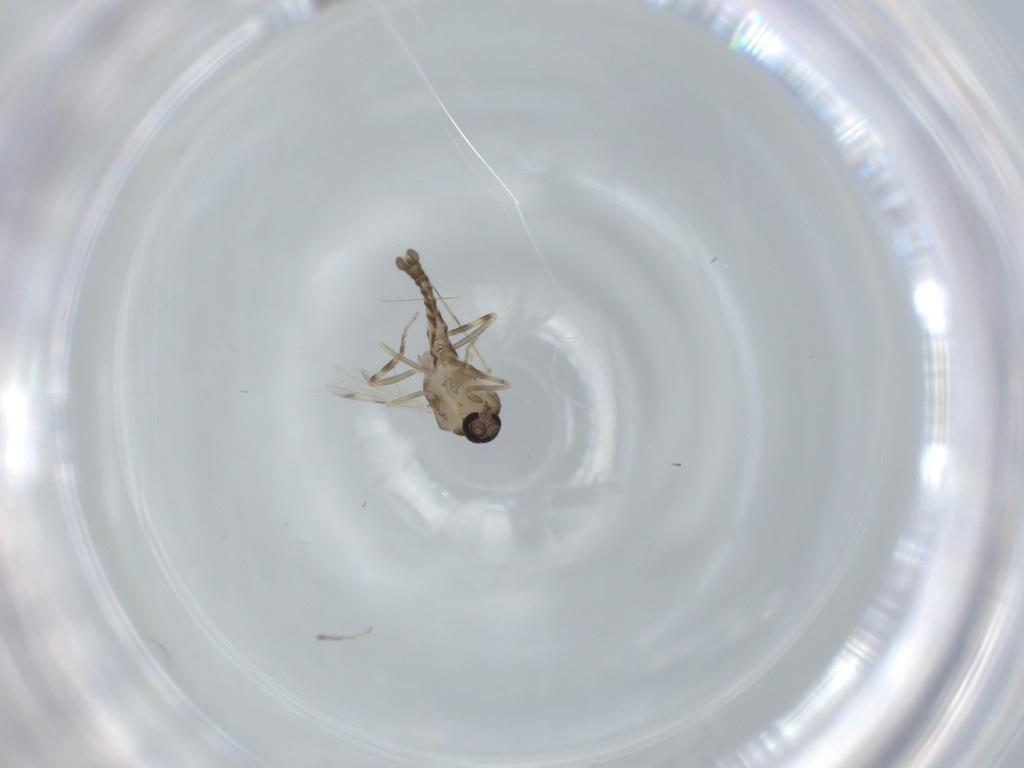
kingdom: Animalia
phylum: Arthropoda
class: Insecta
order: Diptera
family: Ceratopogonidae
